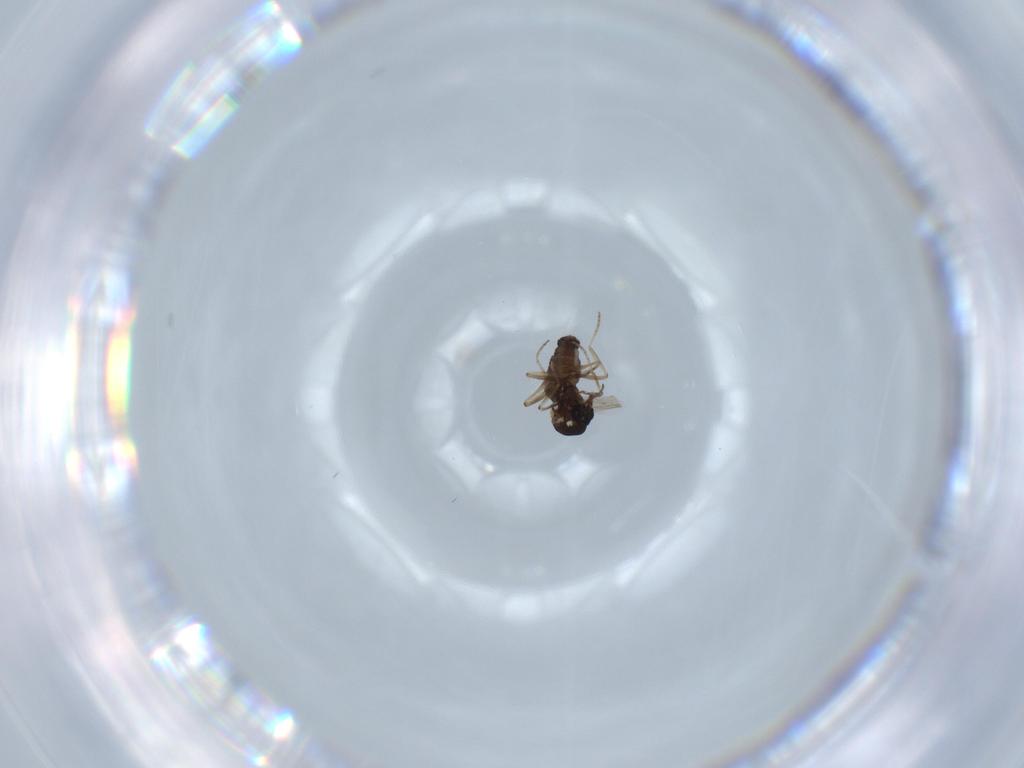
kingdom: Animalia
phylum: Arthropoda
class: Insecta
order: Diptera
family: Ceratopogonidae
